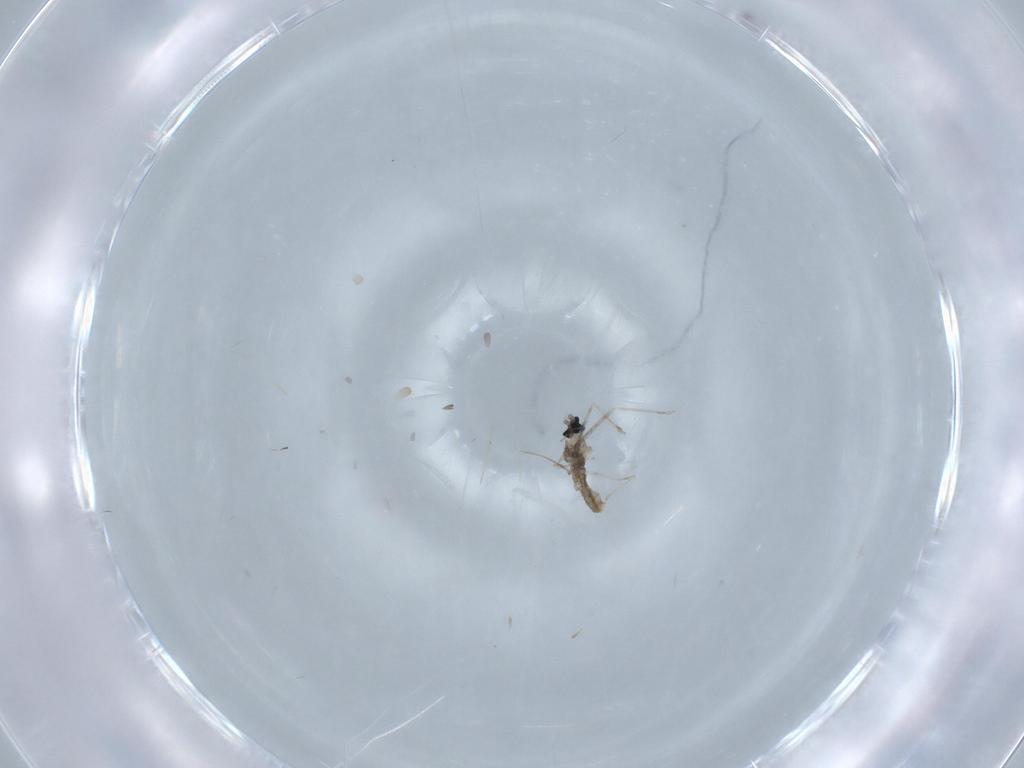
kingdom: Animalia
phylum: Arthropoda
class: Insecta
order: Diptera
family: Cecidomyiidae
